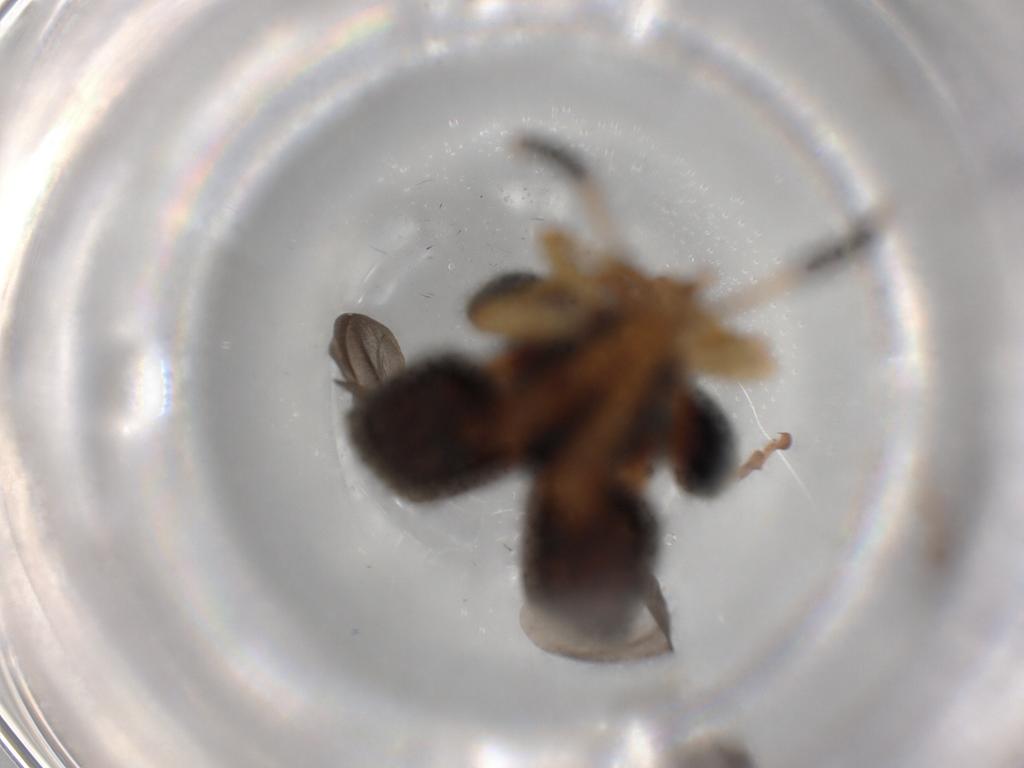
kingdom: Animalia
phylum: Arthropoda
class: Insecta
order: Coleoptera
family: Chrysomelidae
